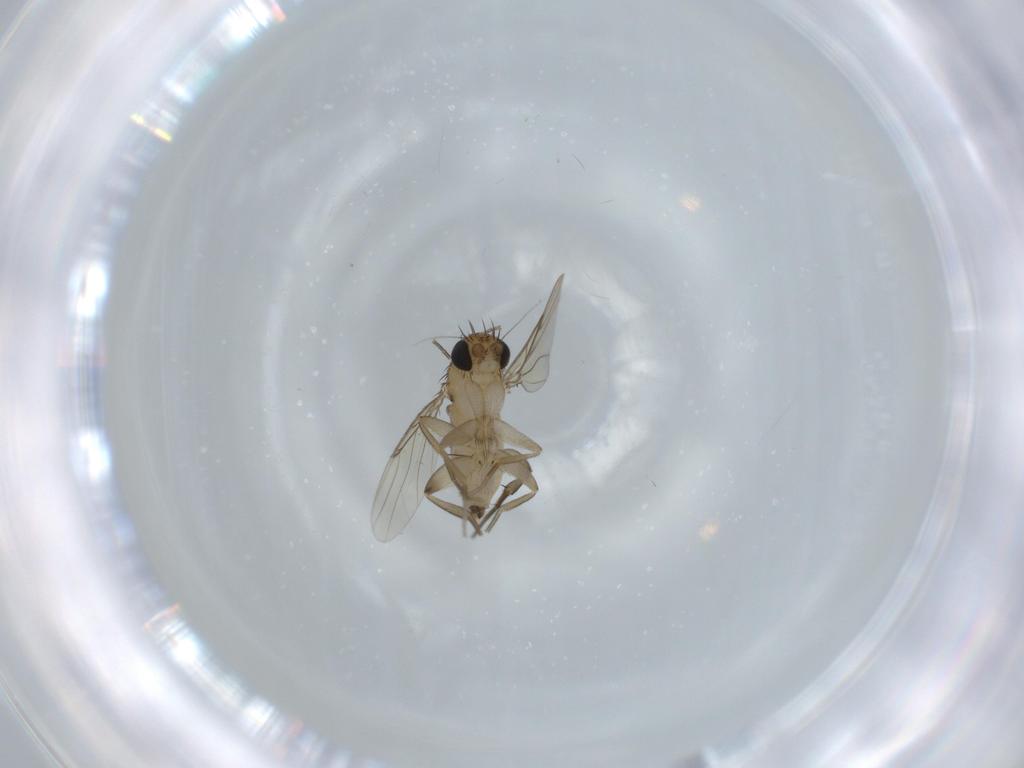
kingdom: Animalia
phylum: Arthropoda
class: Insecta
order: Diptera
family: Phoridae
